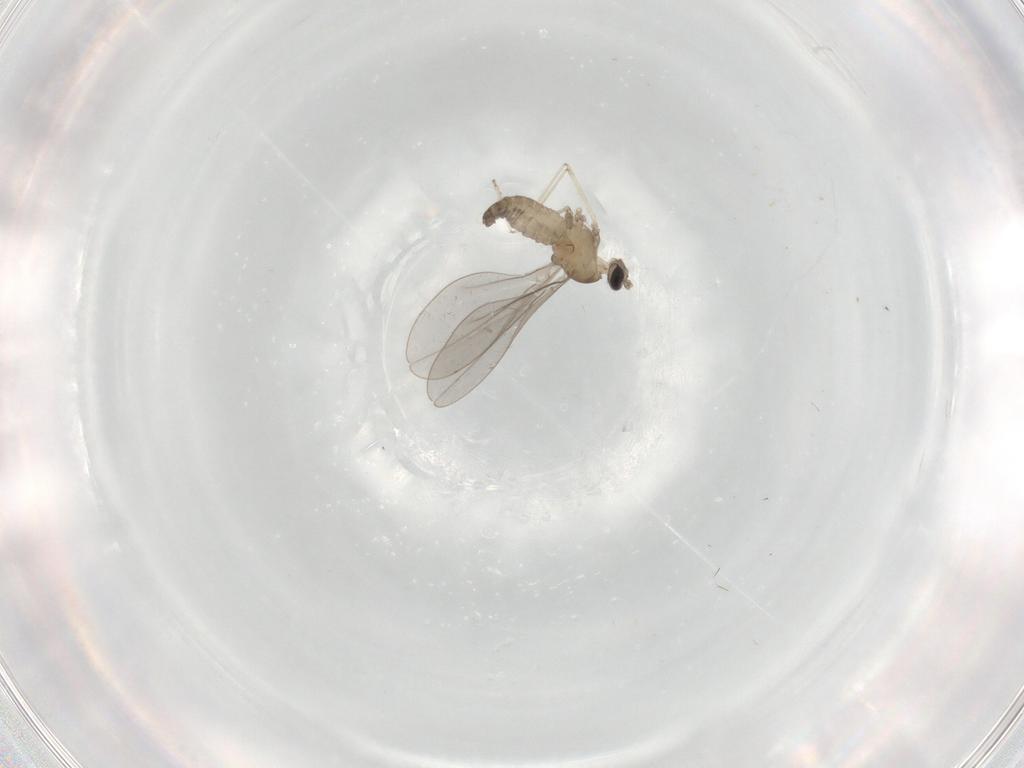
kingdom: Animalia
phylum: Arthropoda
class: Insecta
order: Diptera
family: Cecidomyiidae
